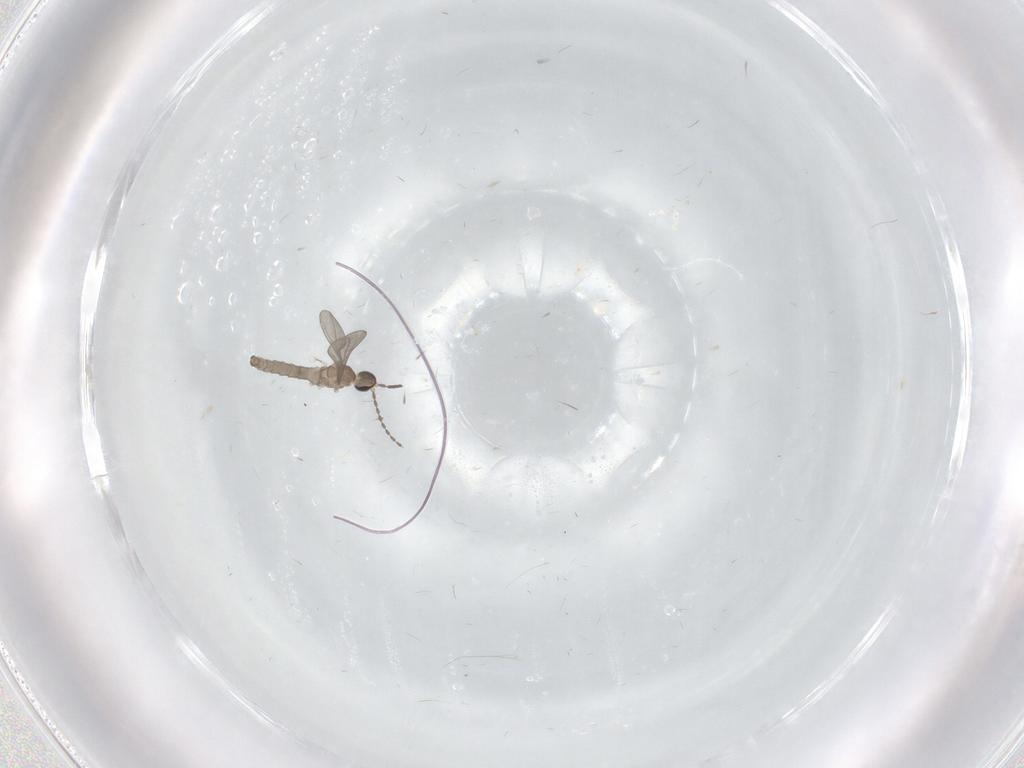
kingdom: Animalia
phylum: Arthropoda
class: Insecta
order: Diptera
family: Cecidomyiidae
